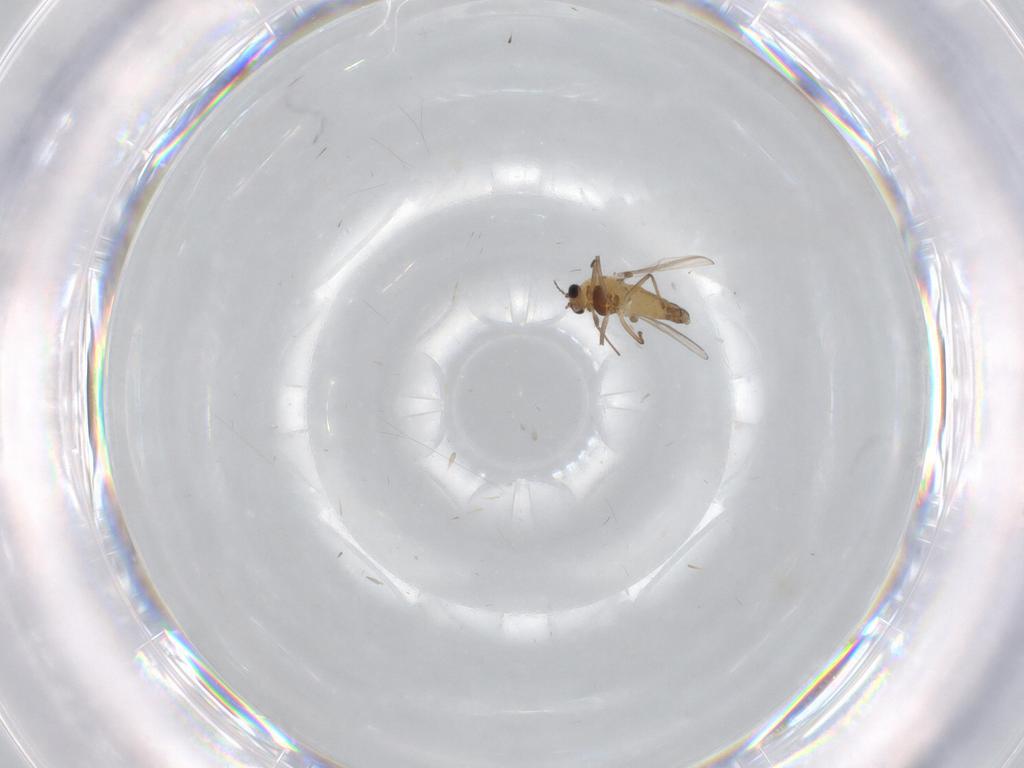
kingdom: Animalia
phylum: Arthropoda
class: Insecta
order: Diptera
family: Chironomidae
